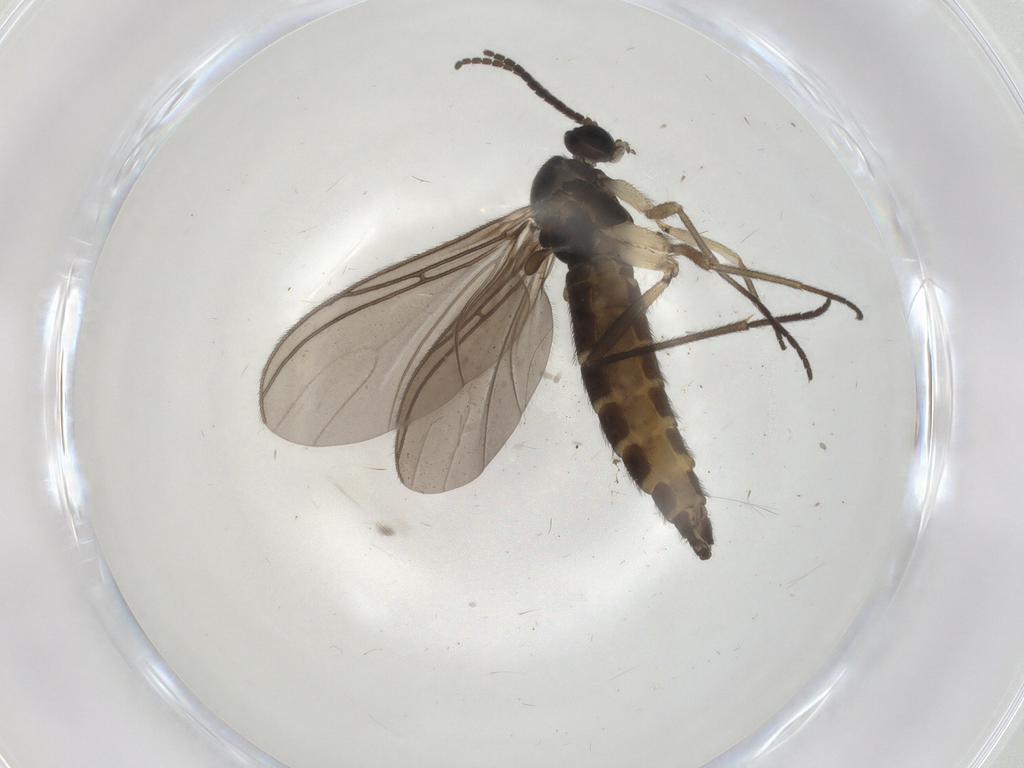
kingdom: Animalia
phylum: Arthropoda
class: Insecta
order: Diptera
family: Sciaridae
